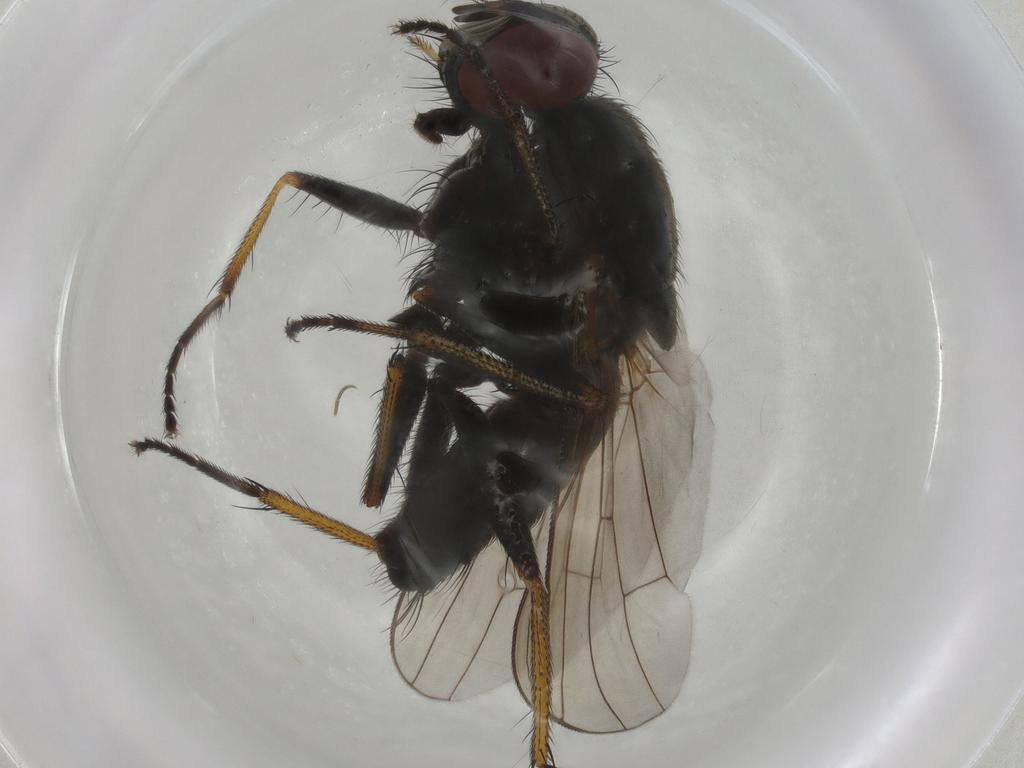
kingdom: Animalia
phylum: Arthropoda
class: Insecta
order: Diptera
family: Muscidae
